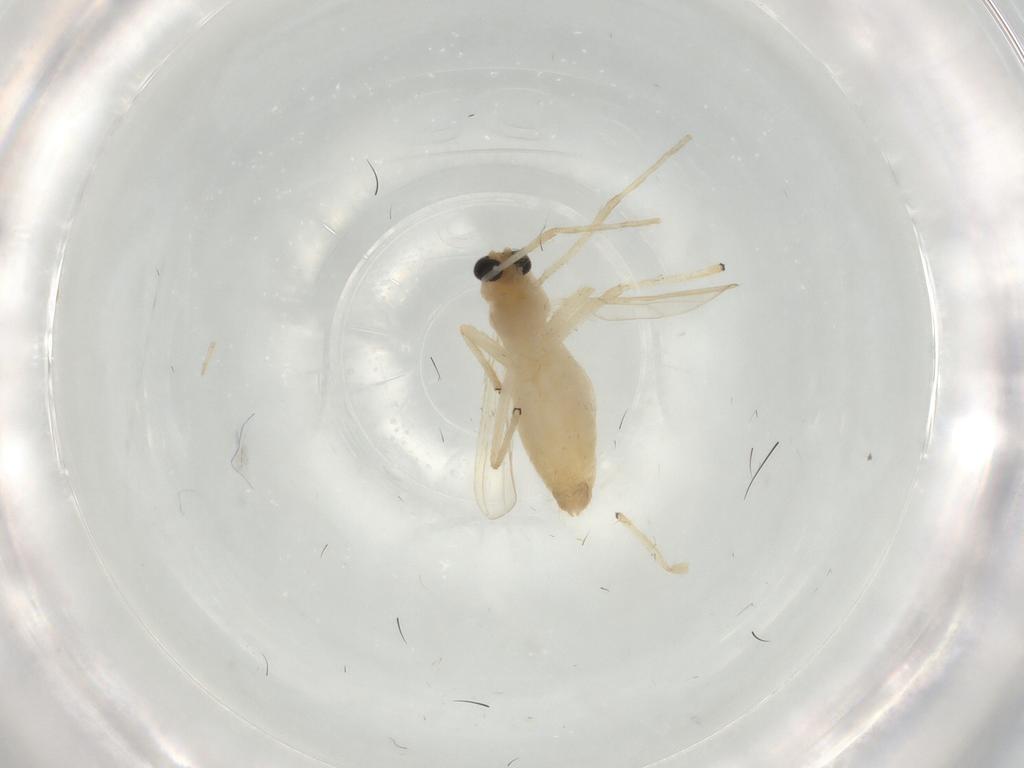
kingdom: Animalia
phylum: Arthropoda
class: Insecta
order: Diptera
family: Chironomidae
